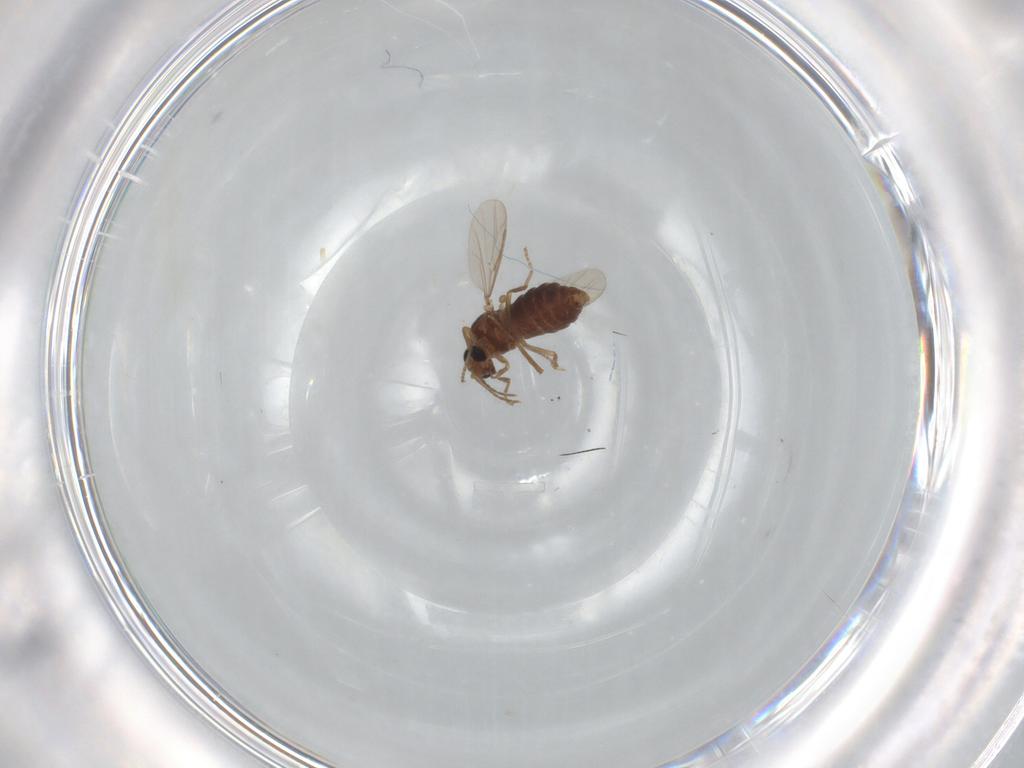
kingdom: Animalia
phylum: Arthropoda
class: Insecta
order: Diptera
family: Ceratopogonidae
